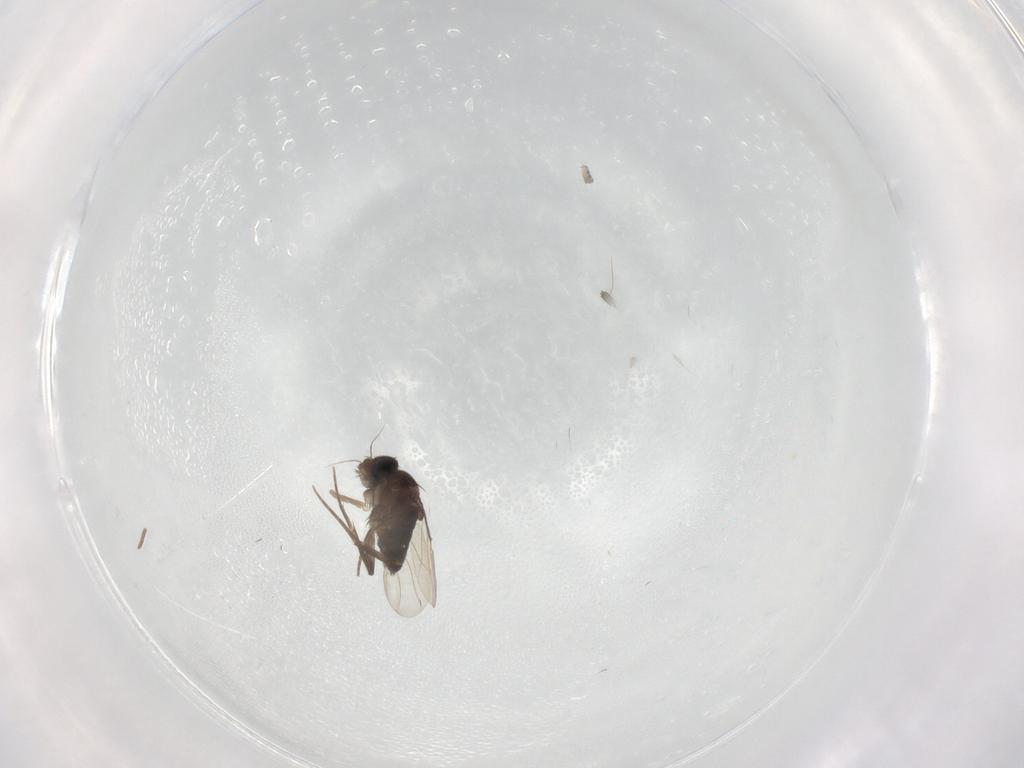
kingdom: Animalia
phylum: Arthropoda
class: Insecta
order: Diptera
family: Phoridae
